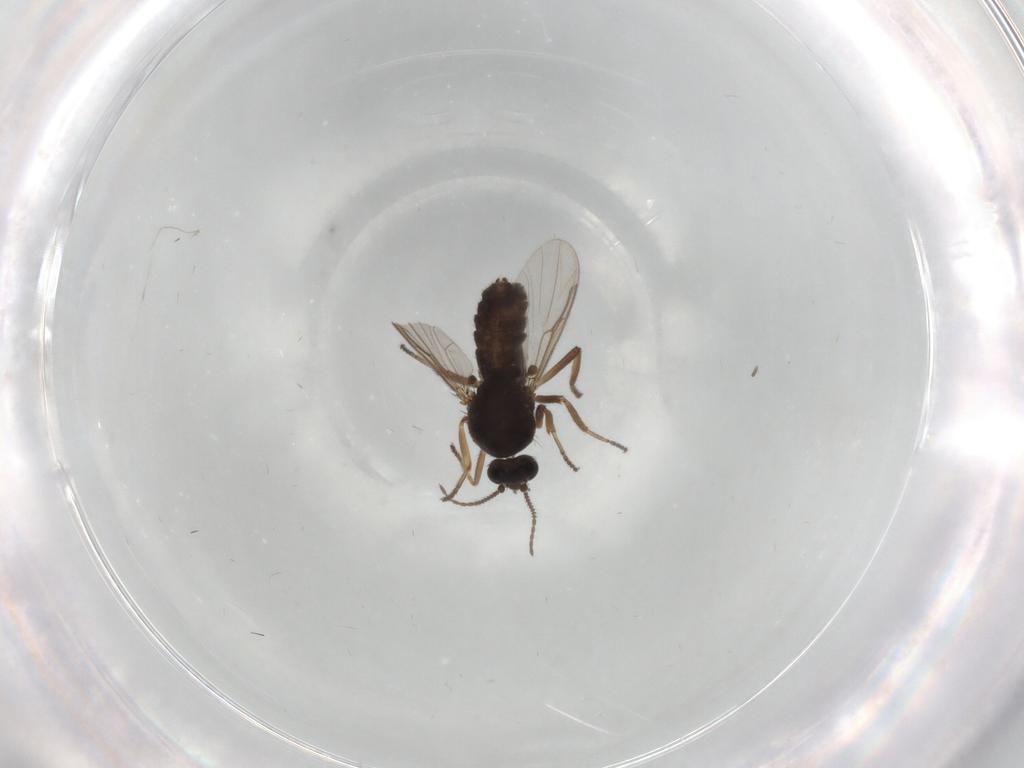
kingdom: Animalia
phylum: Arthropoda
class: Insecta
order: Diptera
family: Ceratopogonidae
